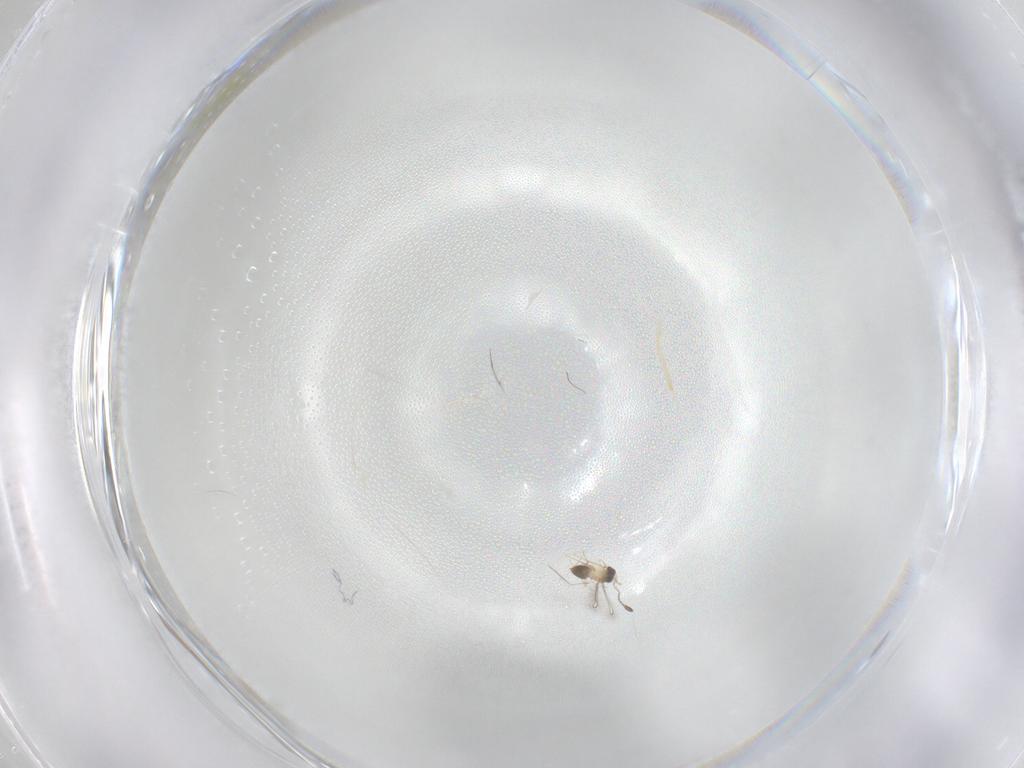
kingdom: Animalia
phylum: Arthropoda
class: Insecta
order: Hymenoptera
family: Mymaridae
